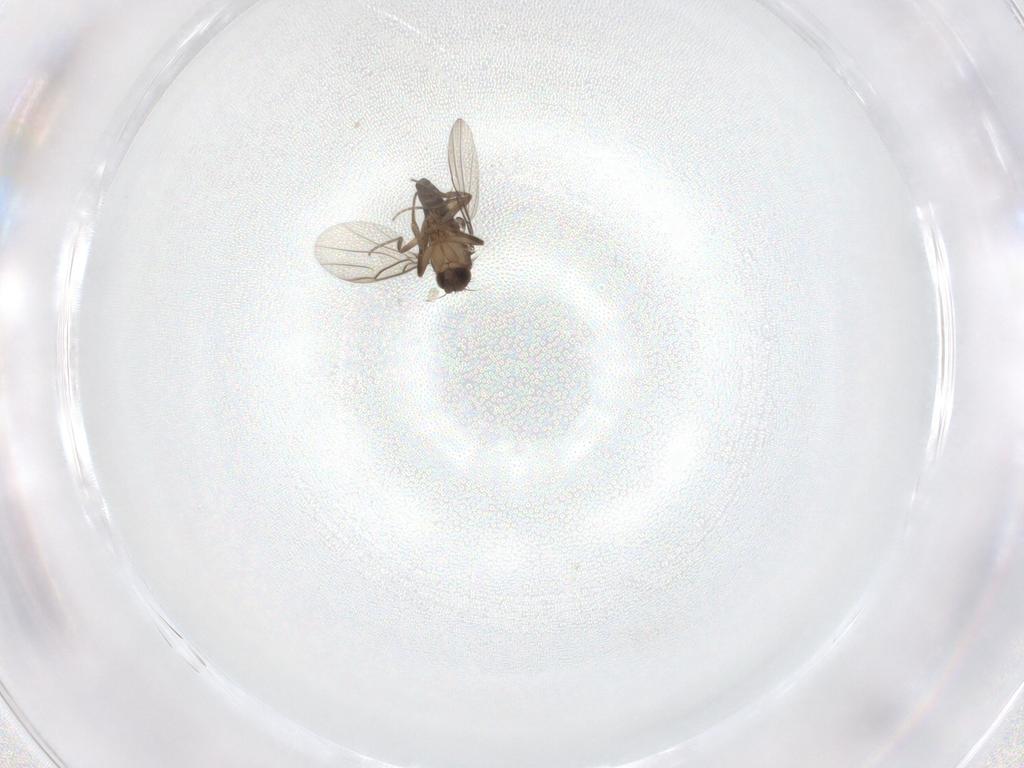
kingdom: Animalia
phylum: Arthropoda
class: Insecta
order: Diptera
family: Phoridae
